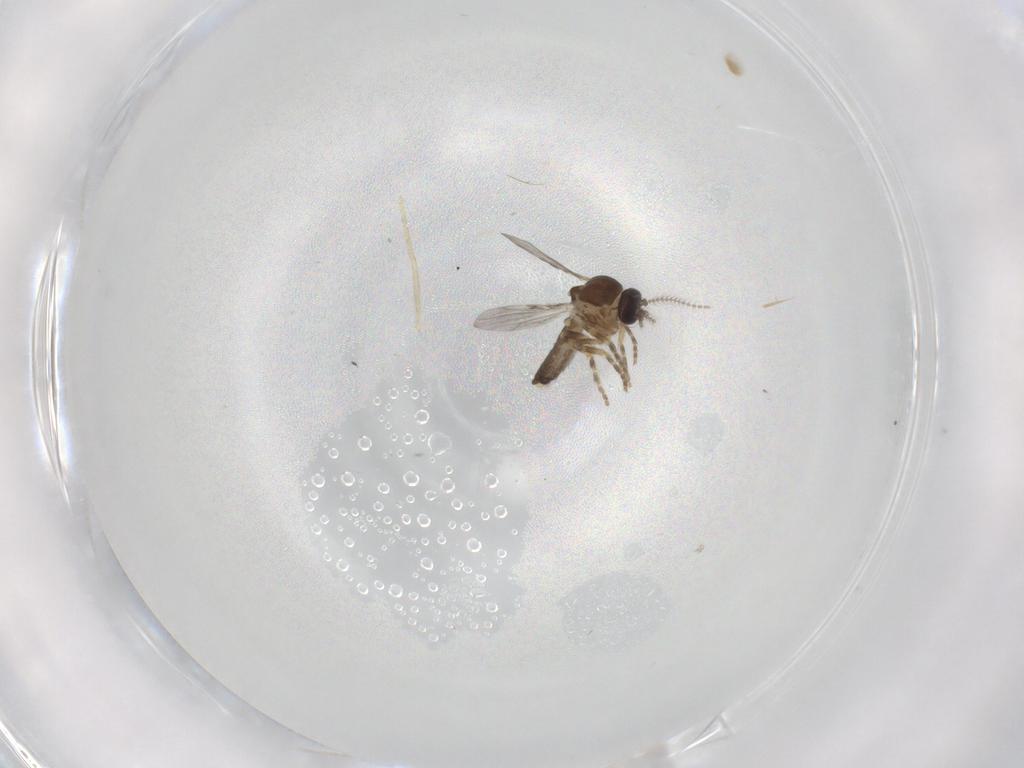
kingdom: Animalia
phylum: Arthropoda
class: Insecta
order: Diptera
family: Ceratopogonidae
